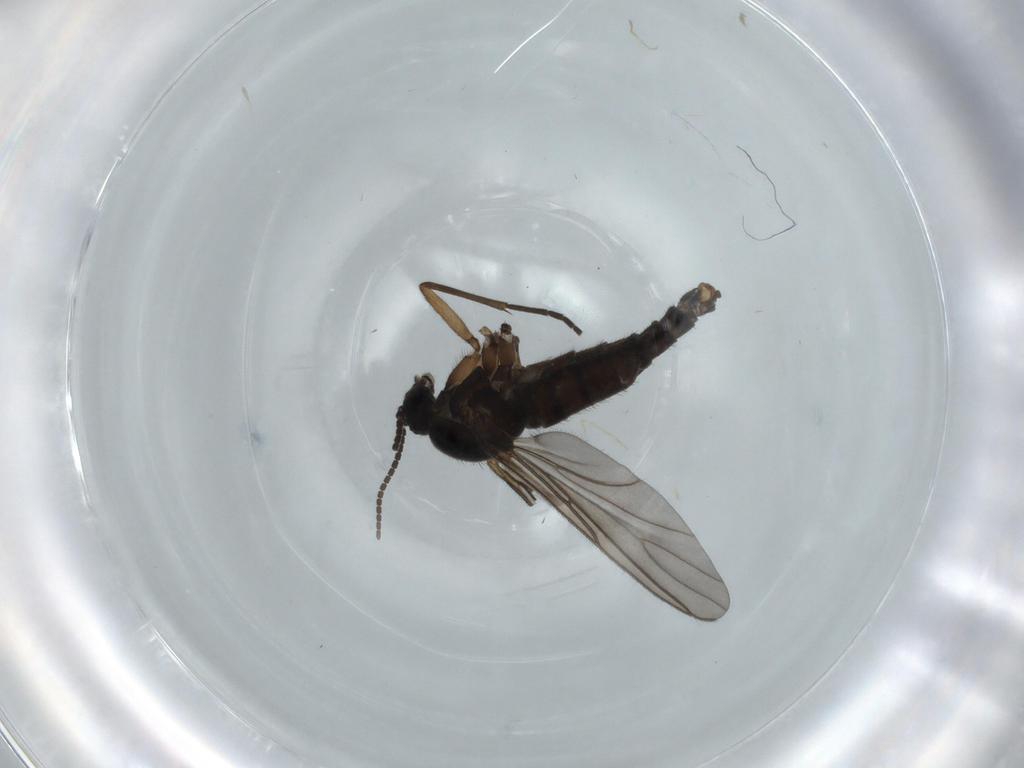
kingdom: Animalia
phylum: Arthropoda
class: Insecta
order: Diptera
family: Sciaridae
